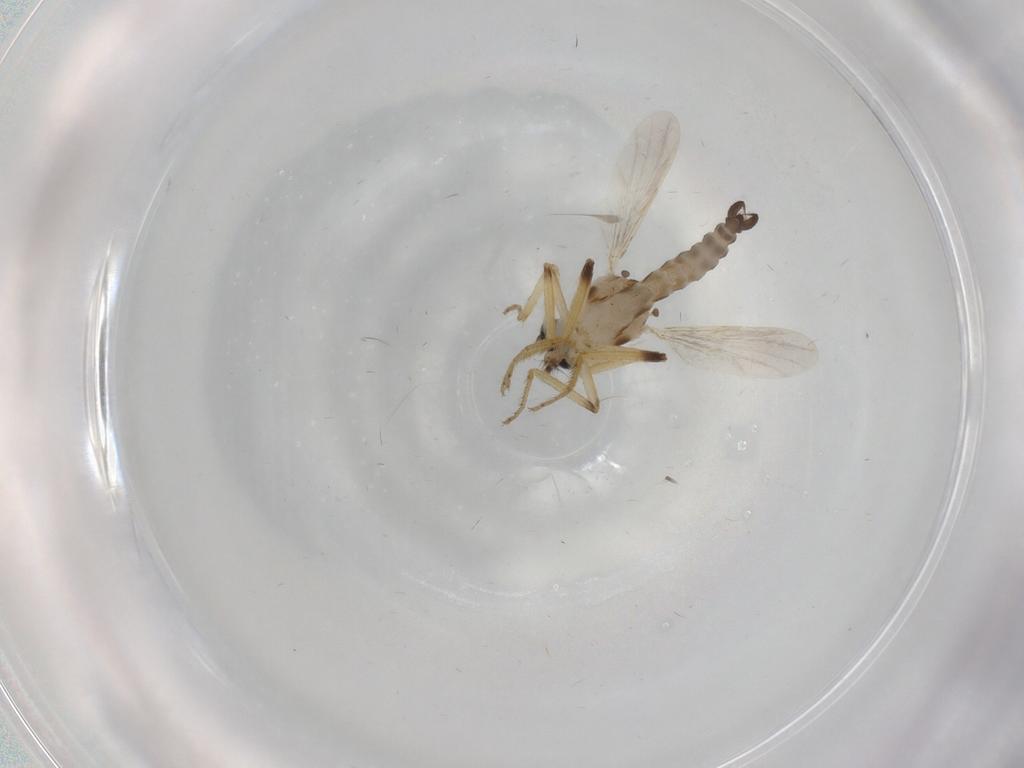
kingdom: Animalia
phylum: Arthropoda
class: Insecta
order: Diptera
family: Ceratopogonidae
